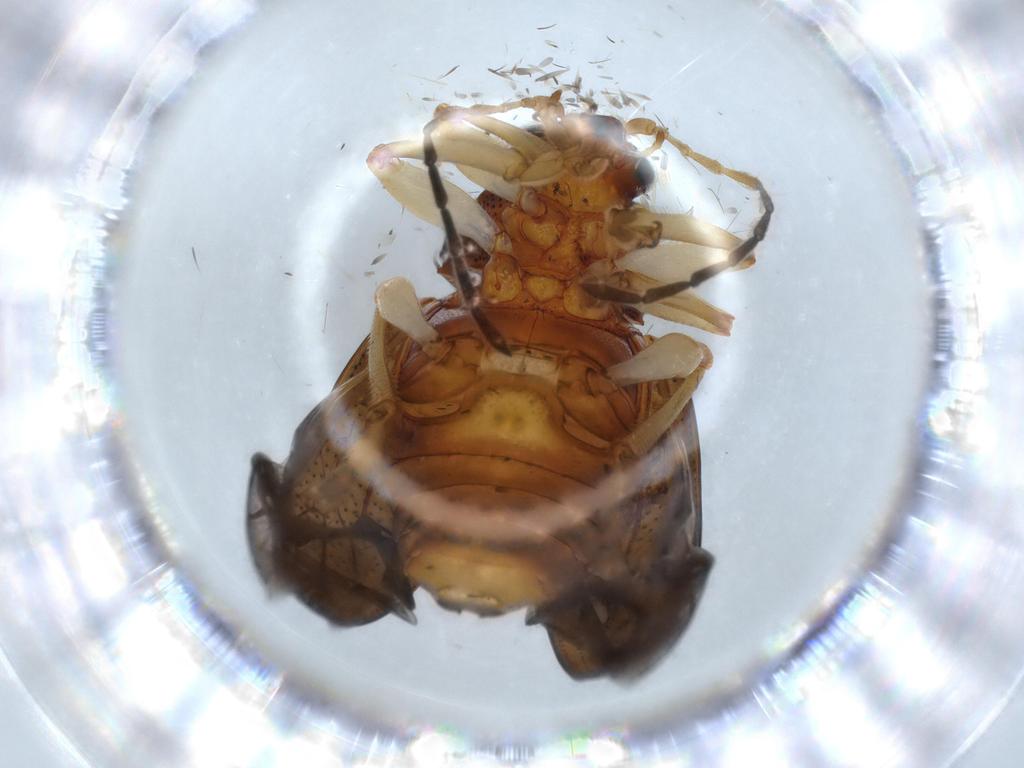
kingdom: Animalia
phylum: Arthropoda
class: Insecta
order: Coleoptera
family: Chrysomelidae
